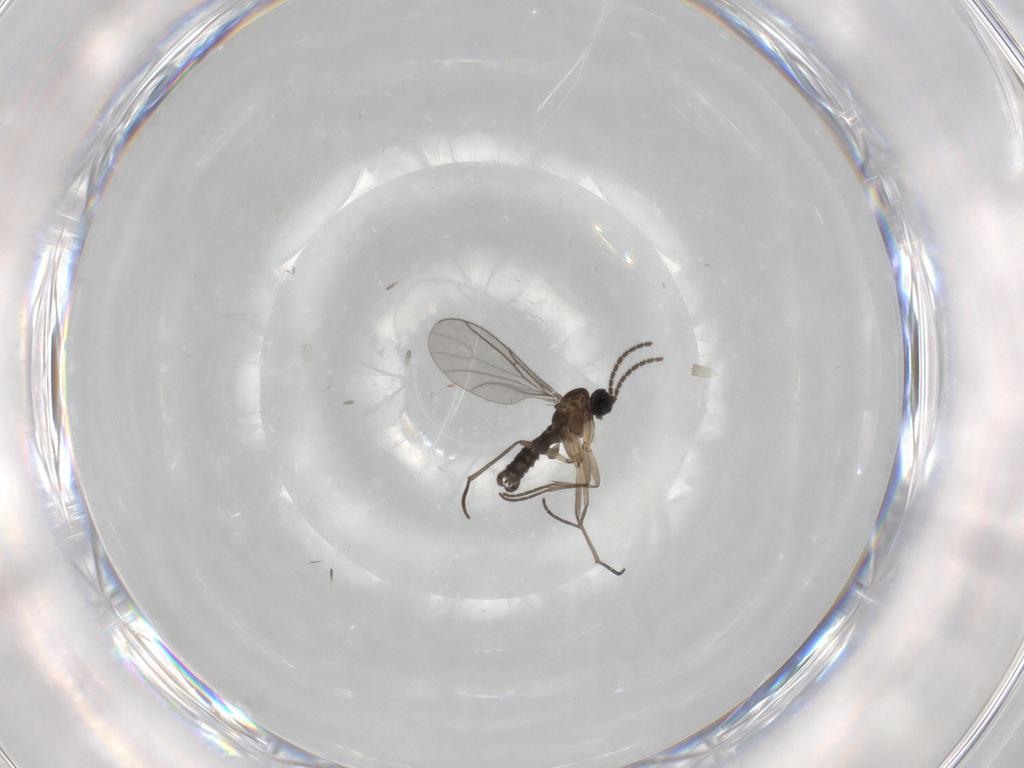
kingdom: Animalia
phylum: Arthropoda
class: Insecta
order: Diptera
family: Sciaridae
